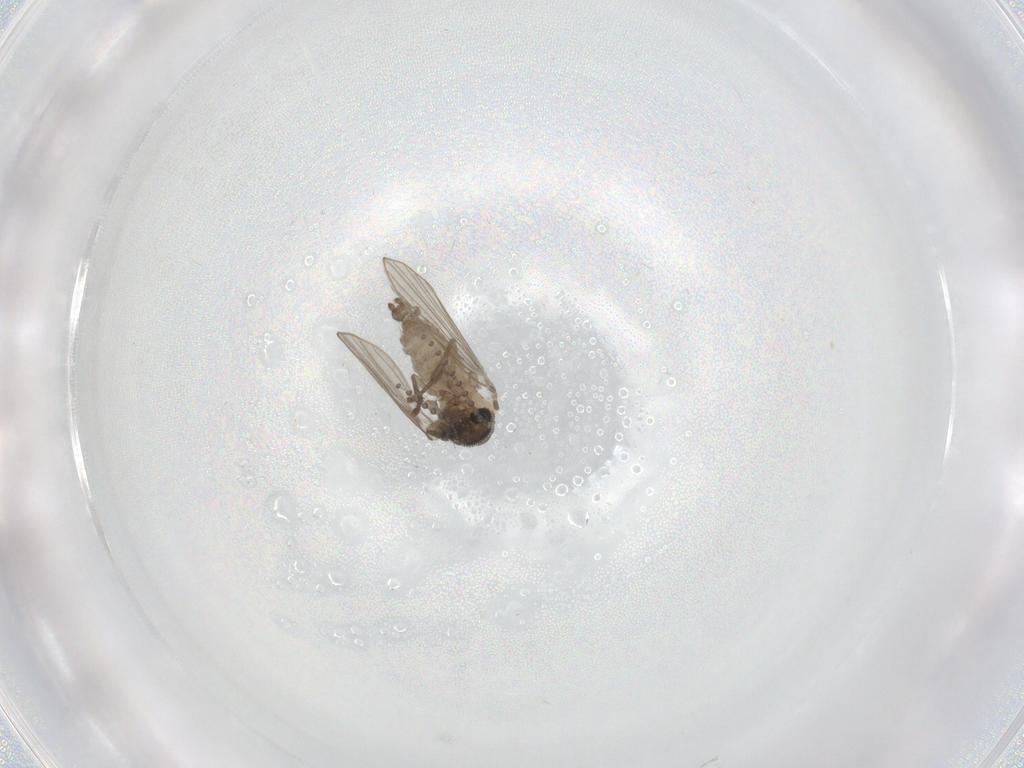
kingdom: Animalia
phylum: Arthropoda
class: Insecta
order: Diptera
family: Psychodidae
